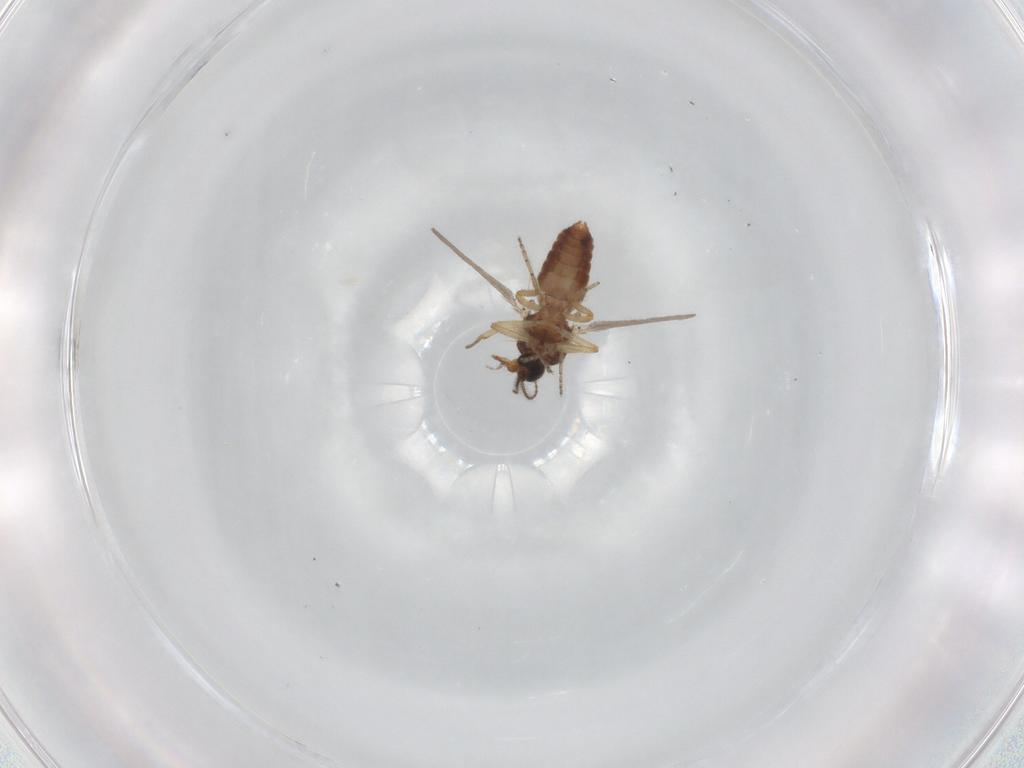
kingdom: Animalia
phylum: Arthropoda
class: Insecta
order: Diptera
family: Ceratopogonidae
